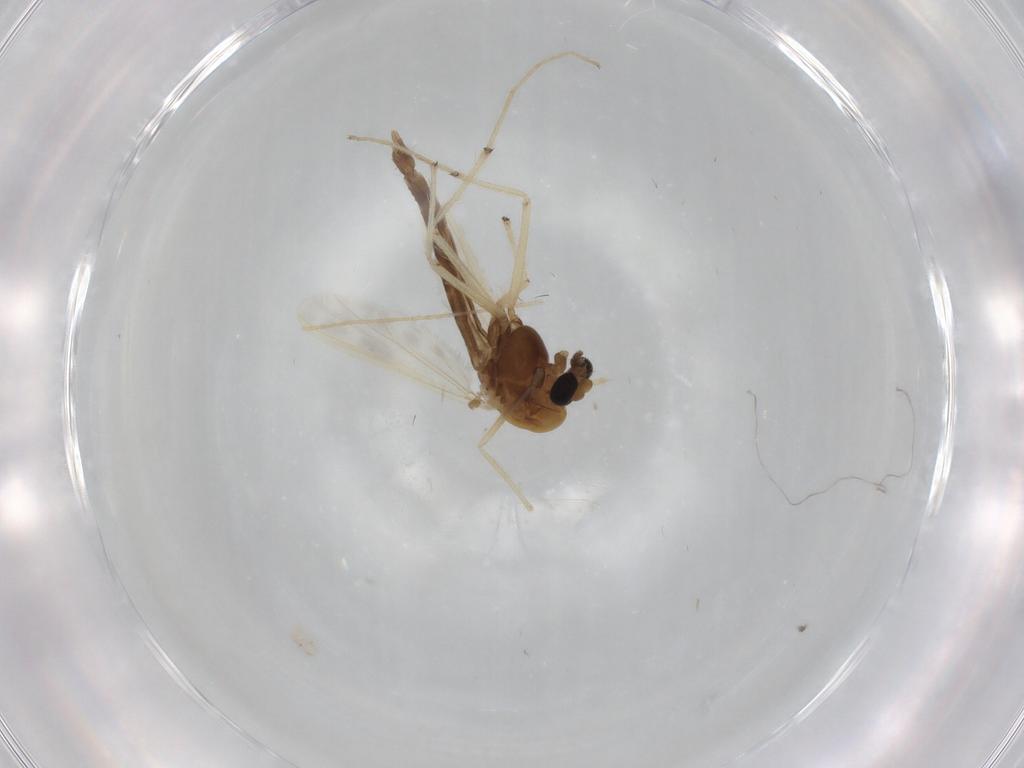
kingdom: Animalia
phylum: Arthropoda
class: Insecta
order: Diptera
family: Chironomidae
